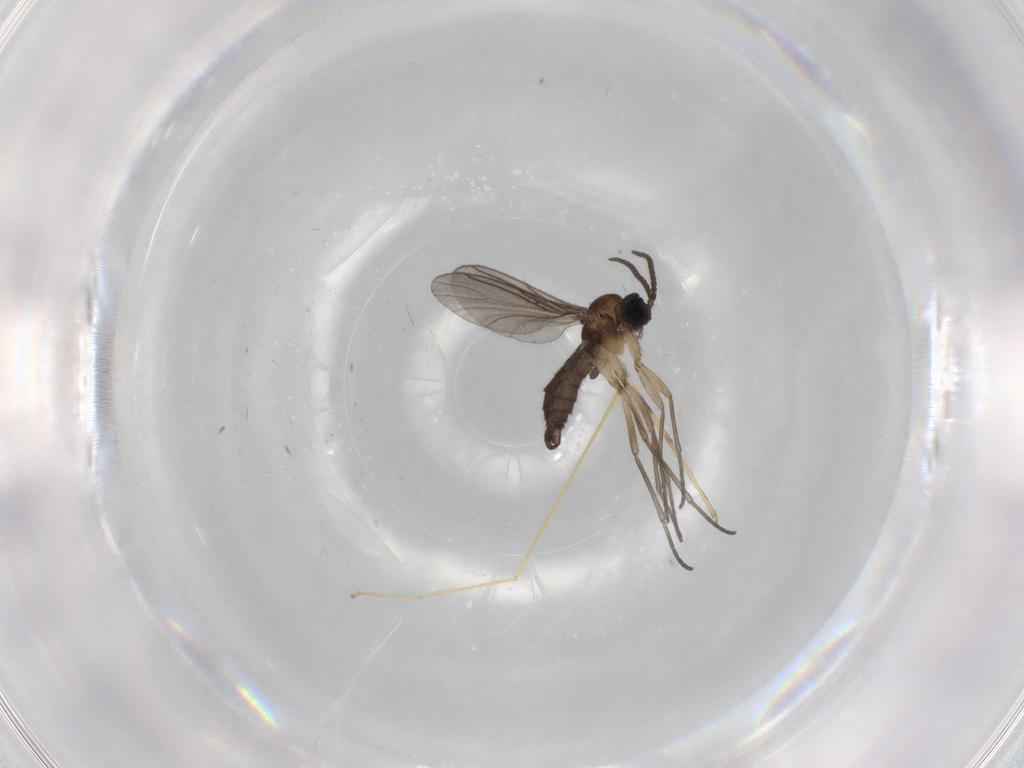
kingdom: Animalia
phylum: Arthropoda
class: Insecta
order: Diptera
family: Sciaridae
